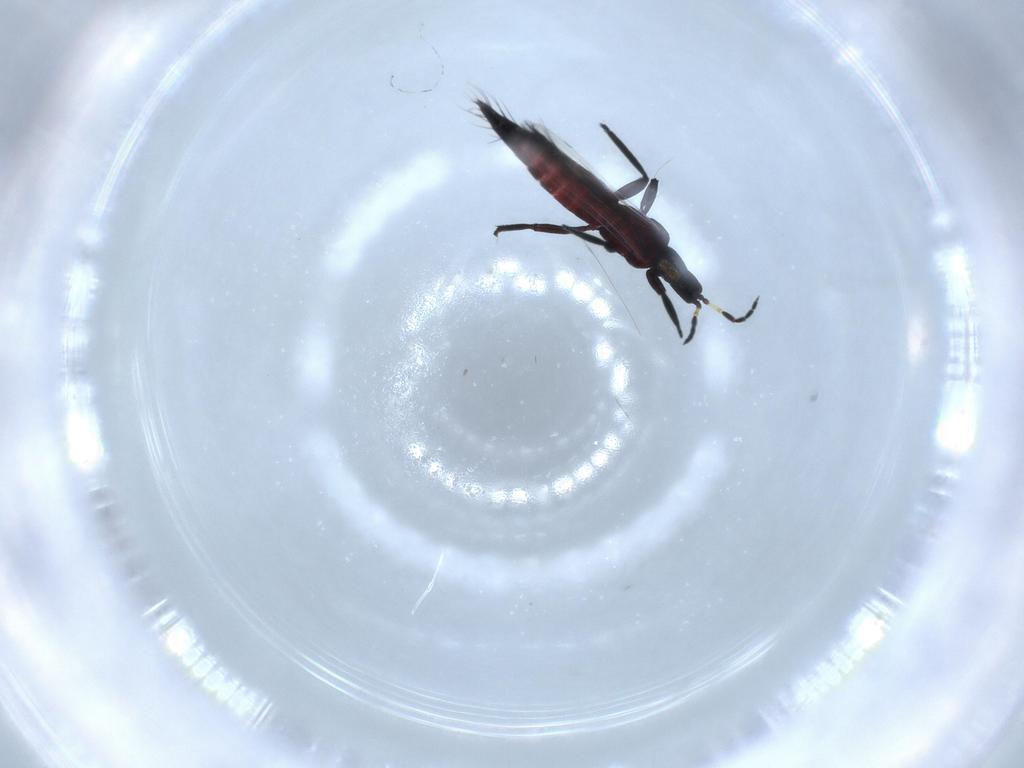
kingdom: Animalia
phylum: Arthropoda
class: Insecta
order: Thysanoptera
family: Aeolothripidae
